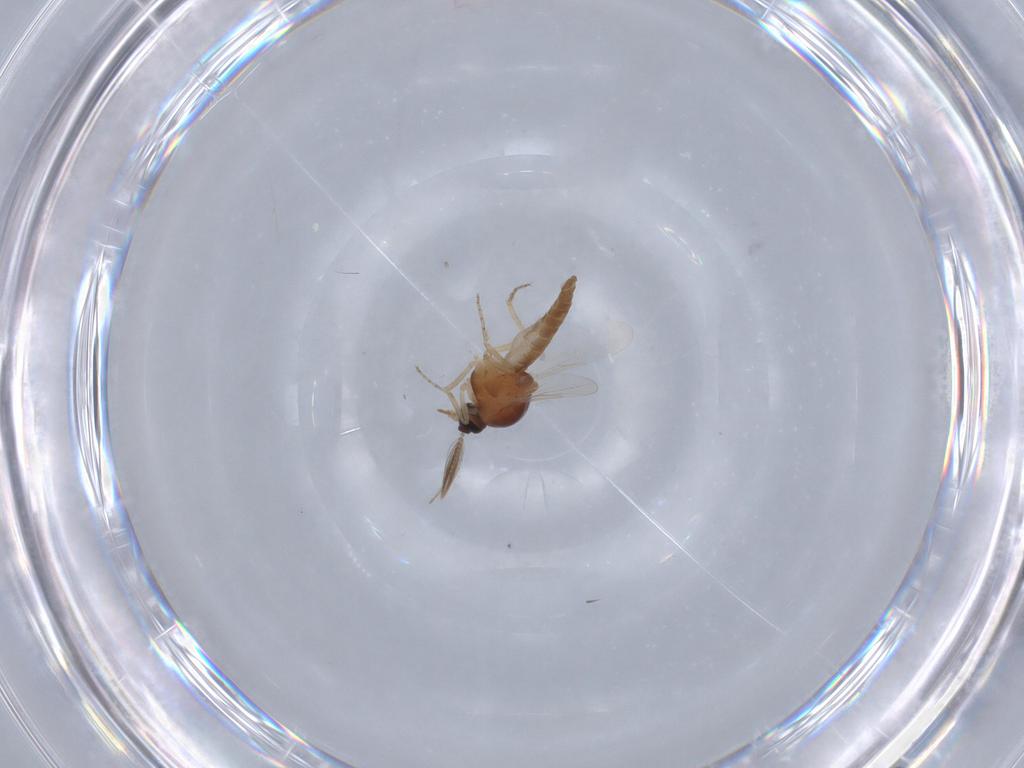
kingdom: Animalia
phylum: Arthropoda
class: Insecta
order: Diptera
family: Ceratopogonidae
